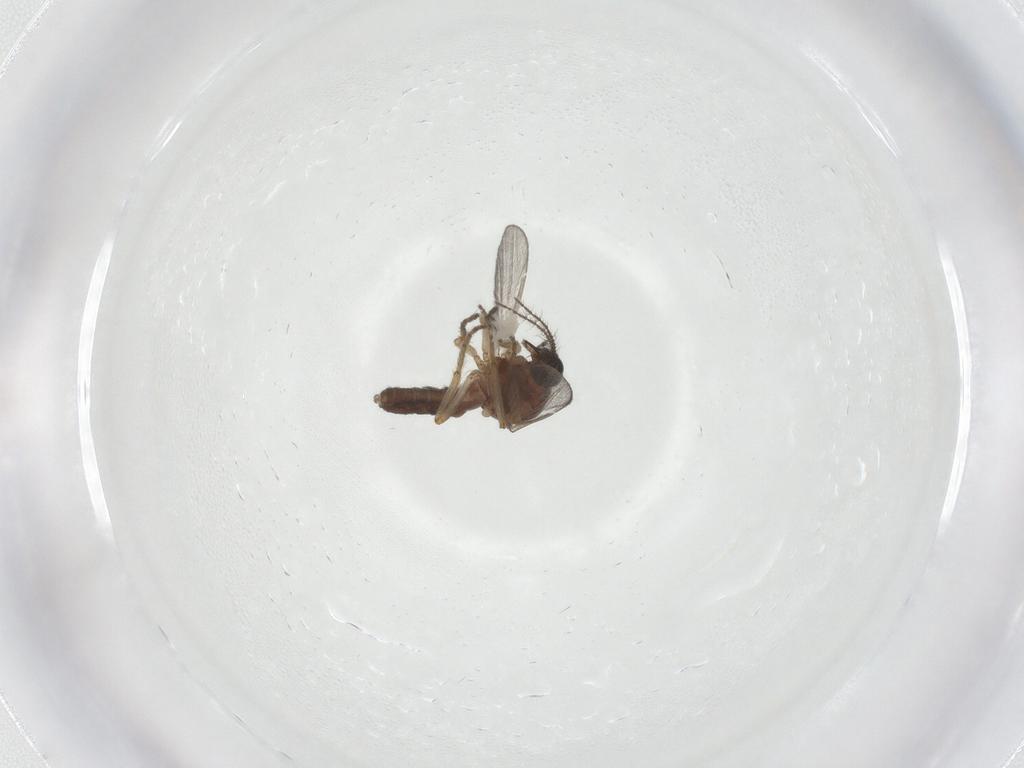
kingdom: Animalia
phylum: Arthropoda
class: Insecta
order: Diptera
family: Ceratopogonidae
